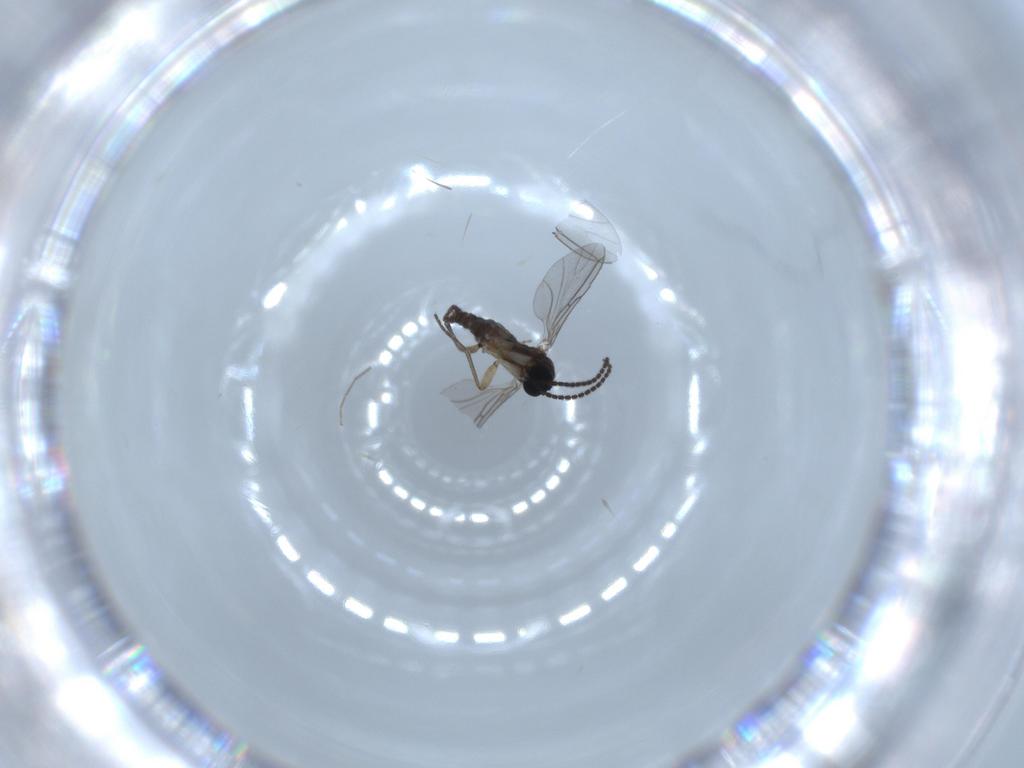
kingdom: Animalia
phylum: Arthropoda
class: Insecta
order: Diptera
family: Sciaridae
